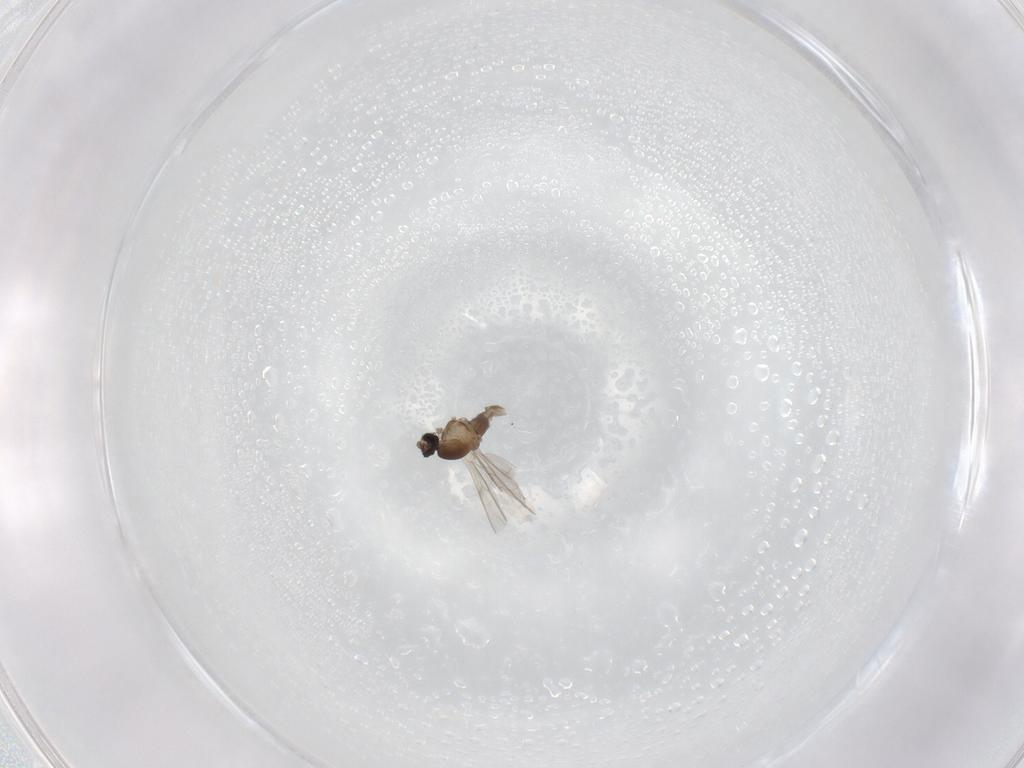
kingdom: Animalia
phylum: Arthropoda
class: Insecta
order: Diptera
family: Cecidomyiidae
